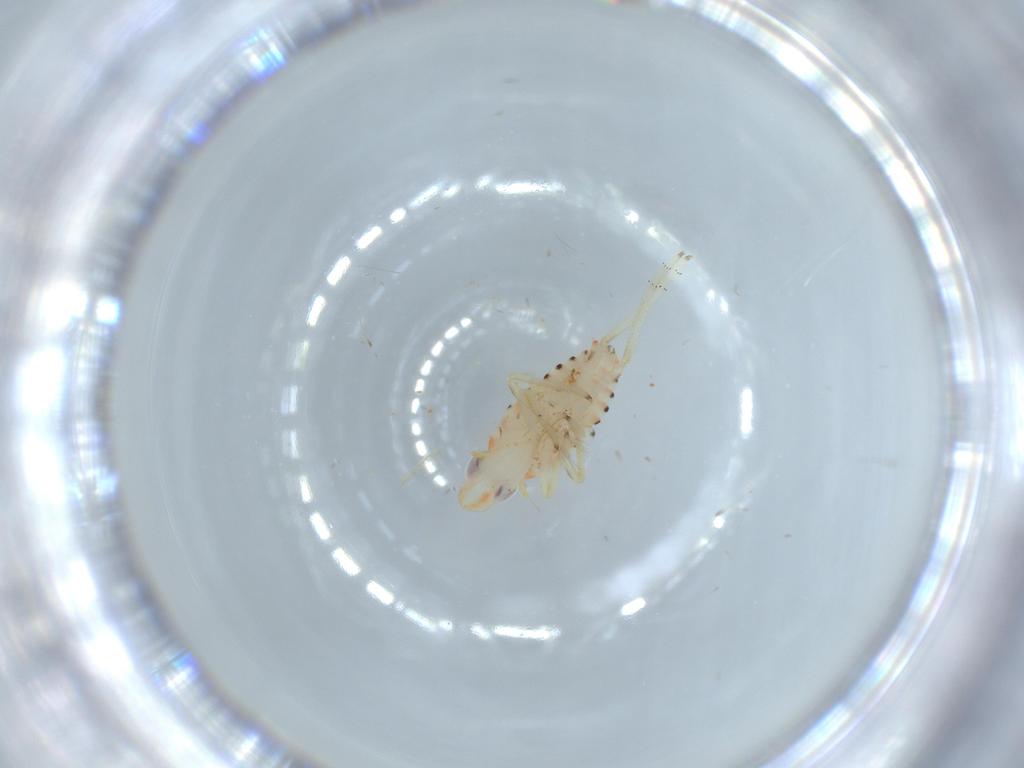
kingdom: Animalia
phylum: Arthropoda
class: Insecta
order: Hemiptera
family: Tropiduchidae
